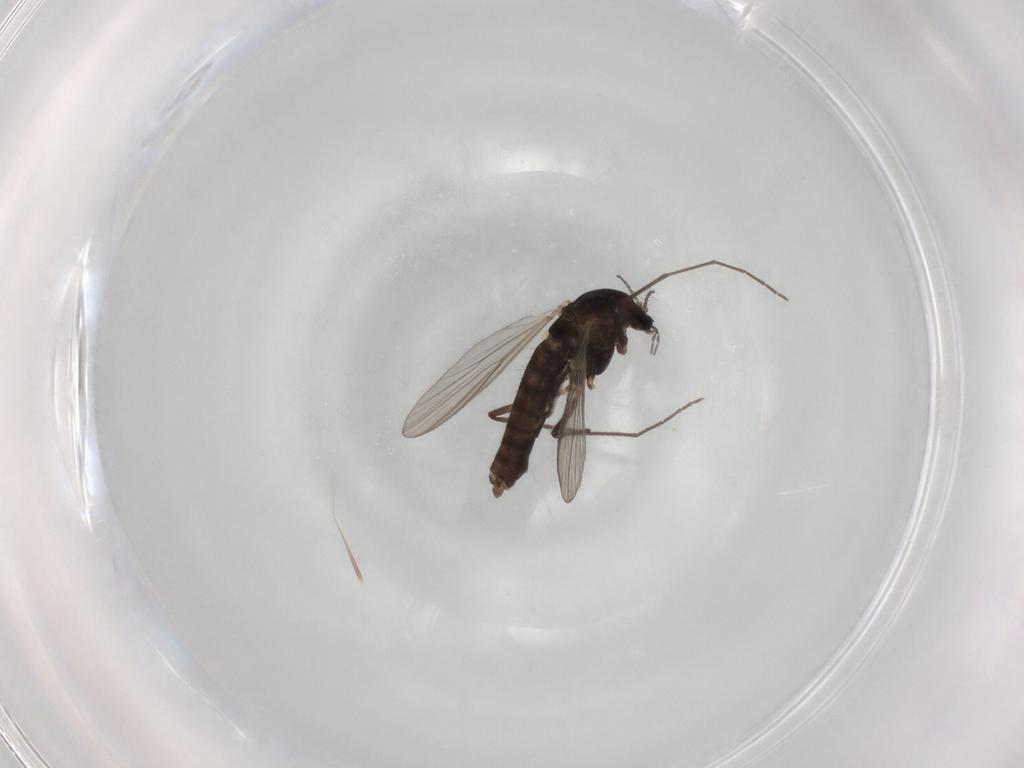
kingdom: Animalia
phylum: Arthropoda
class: Insecta
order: Diptera
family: Chironomidae
